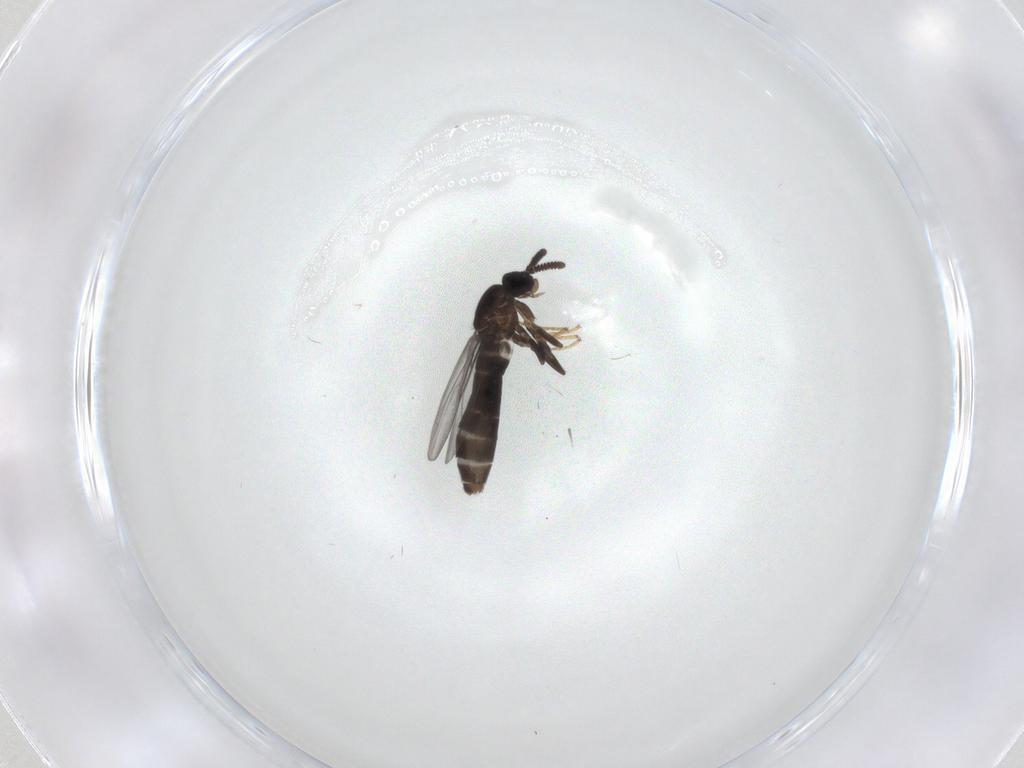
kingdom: Animalia
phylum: Arthropoda
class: Insecta
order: Diptera
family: Scatopsidae
